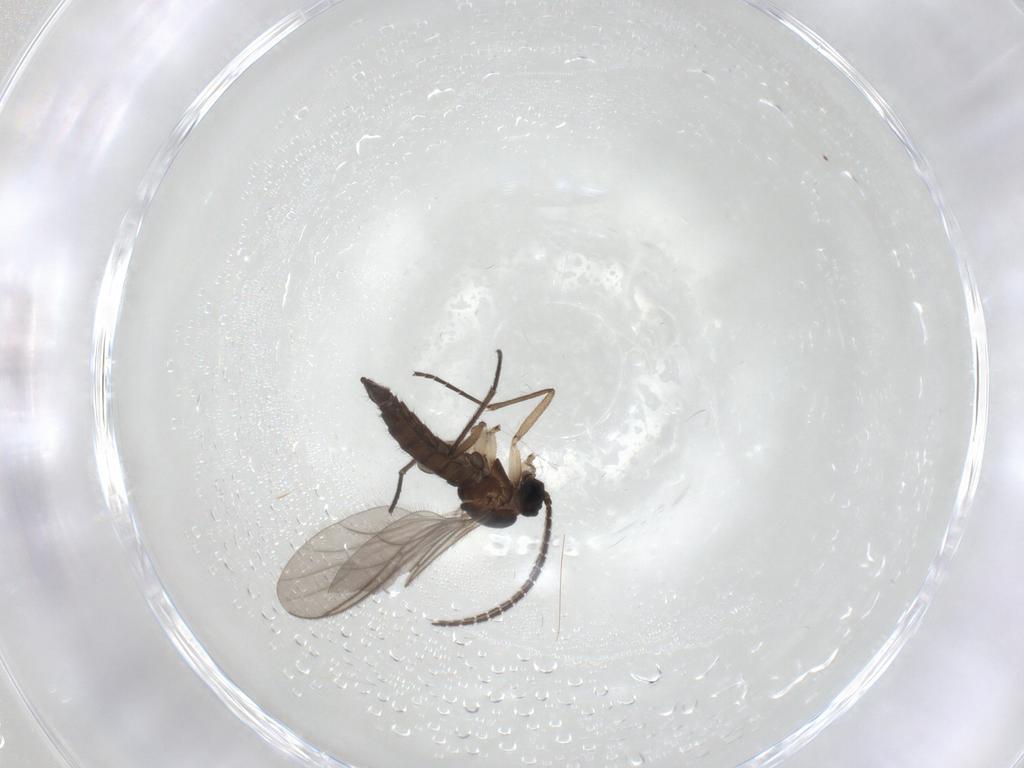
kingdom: Animalia
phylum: Arthropoda
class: Insecta
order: Diptera
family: Sciaridae
